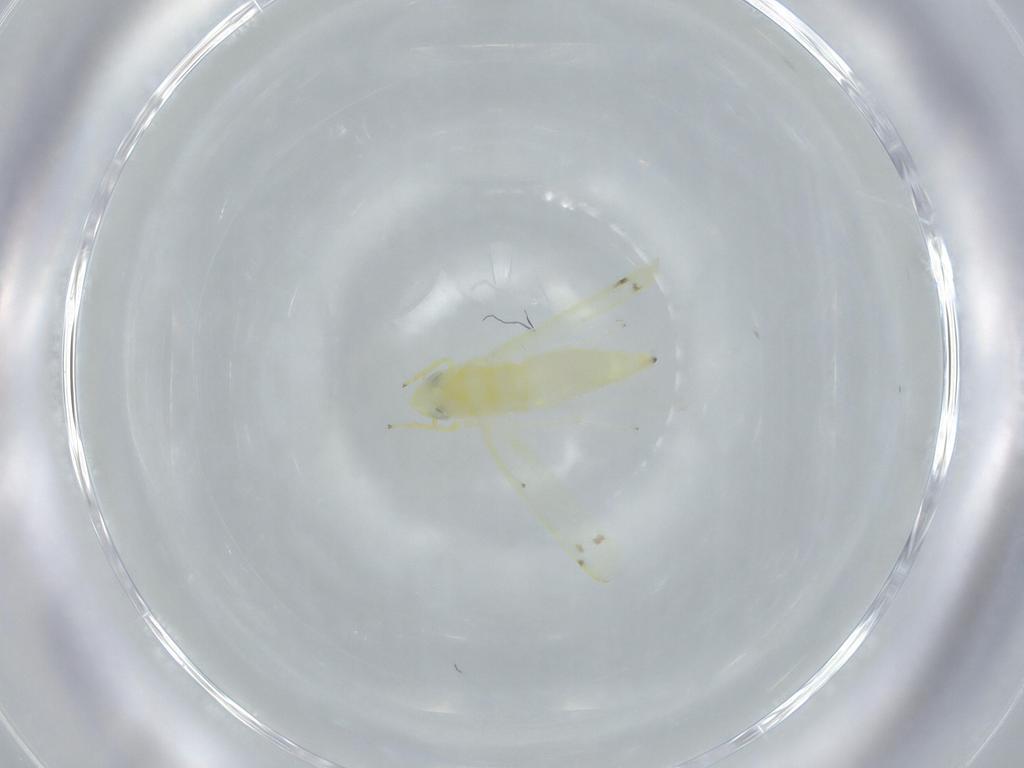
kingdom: Animalia
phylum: Arthropoda
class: Insecta
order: Hemiptera
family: Cicadellidae
